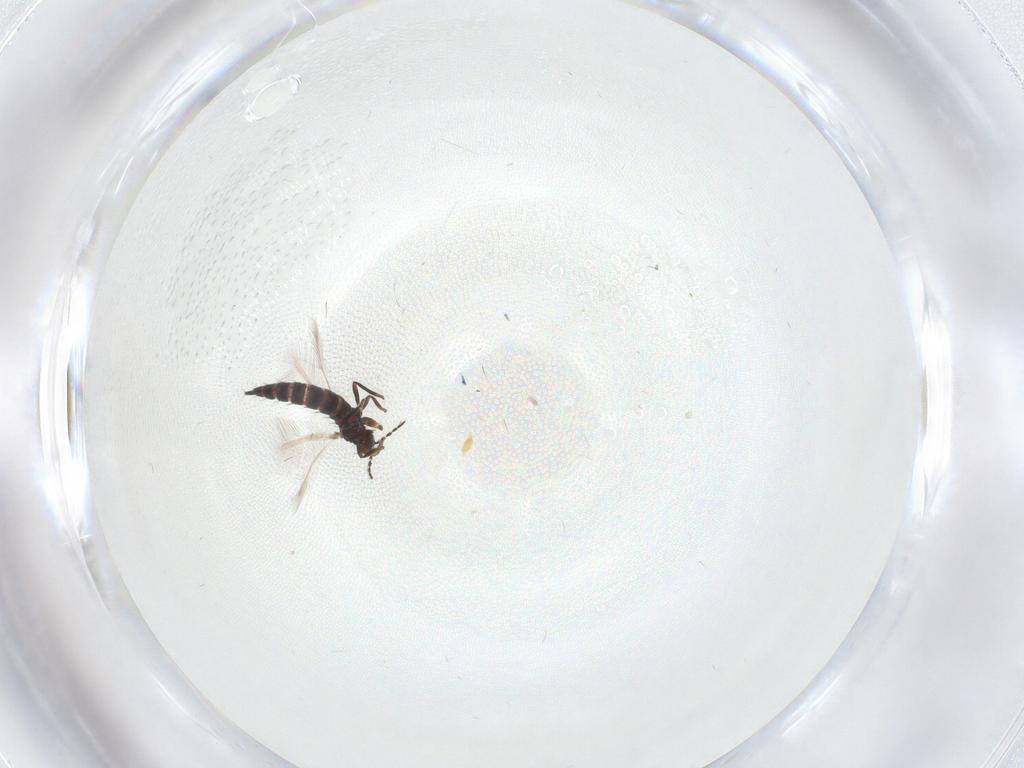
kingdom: Animalia
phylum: Arthropoda
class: Insecta
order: Thysanoptera
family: Phlaeothripidae
